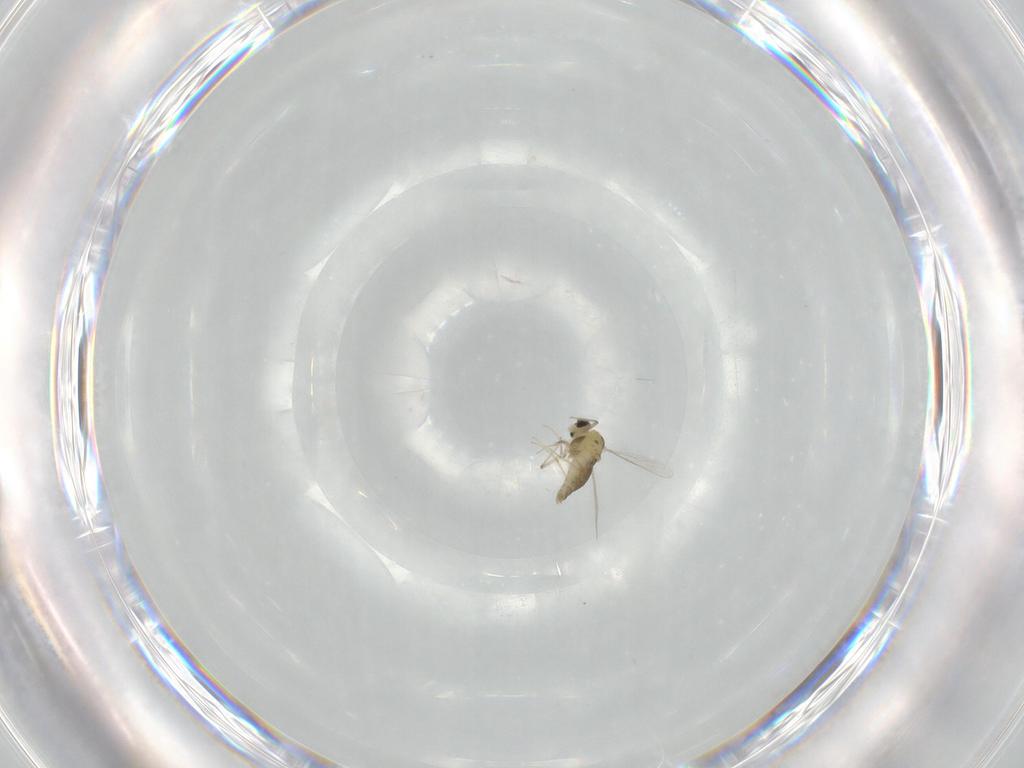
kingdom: Animalia
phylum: Arthropoda
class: Insecta
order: Diptera
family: Chironomidae
